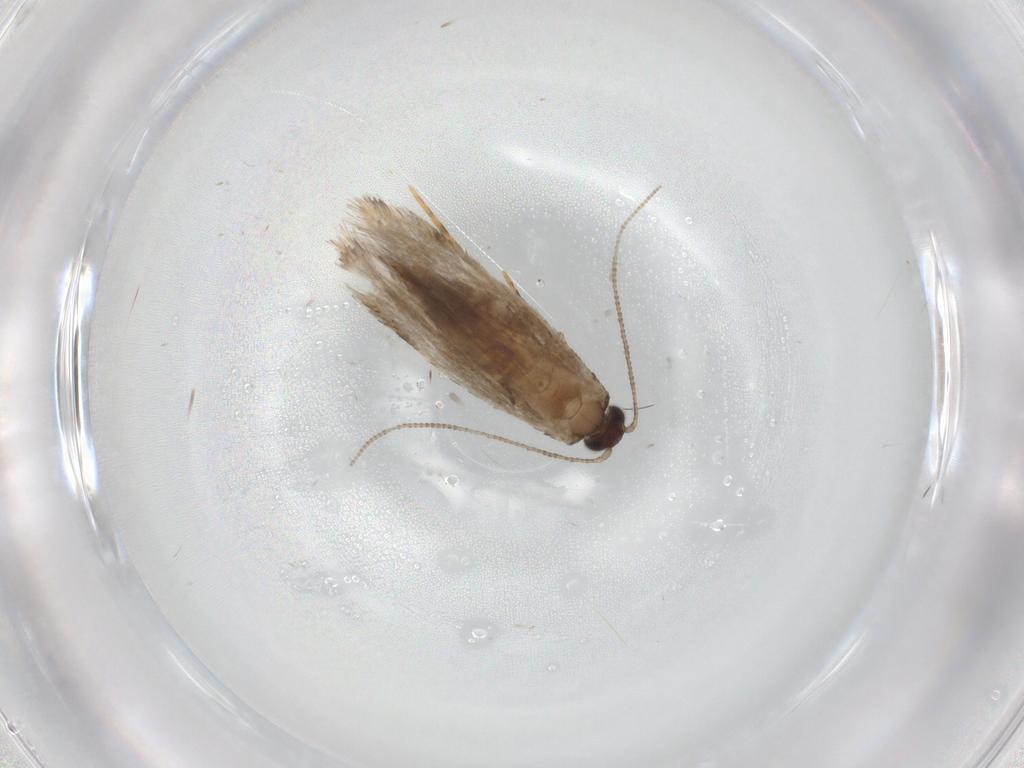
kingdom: Animalia
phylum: Arthropoda
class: Insecta
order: Lepidoptera
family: Tineidae
